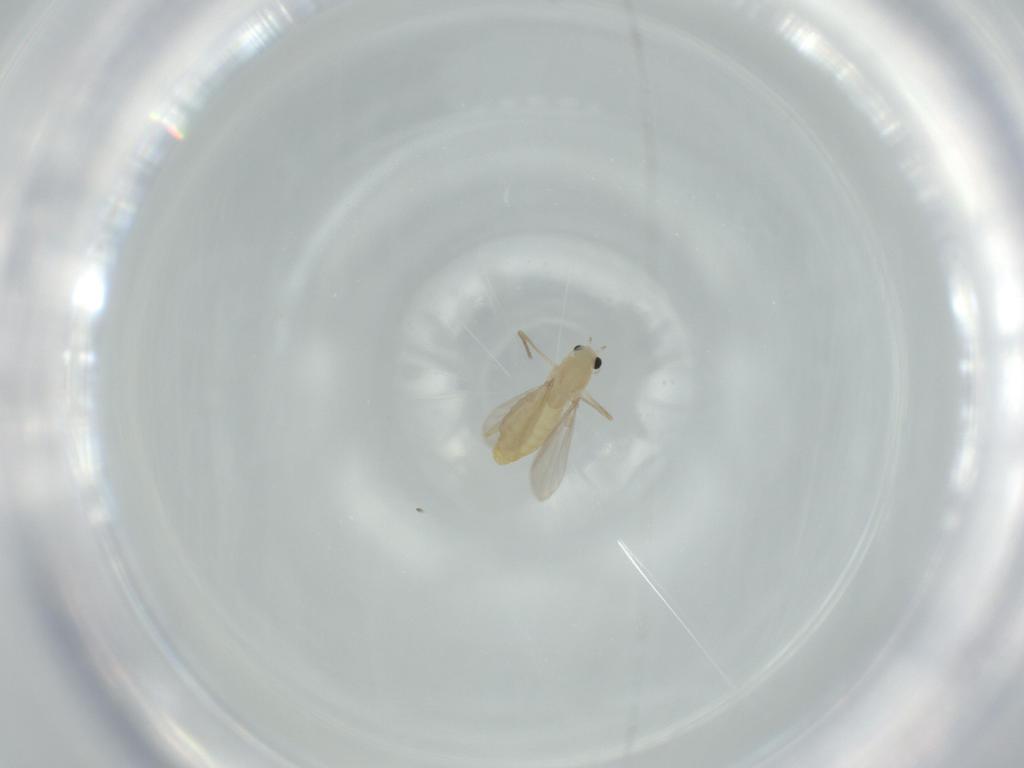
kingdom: Animalia
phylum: Arthropoda
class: Insecta
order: Diptera
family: Chironomidae
